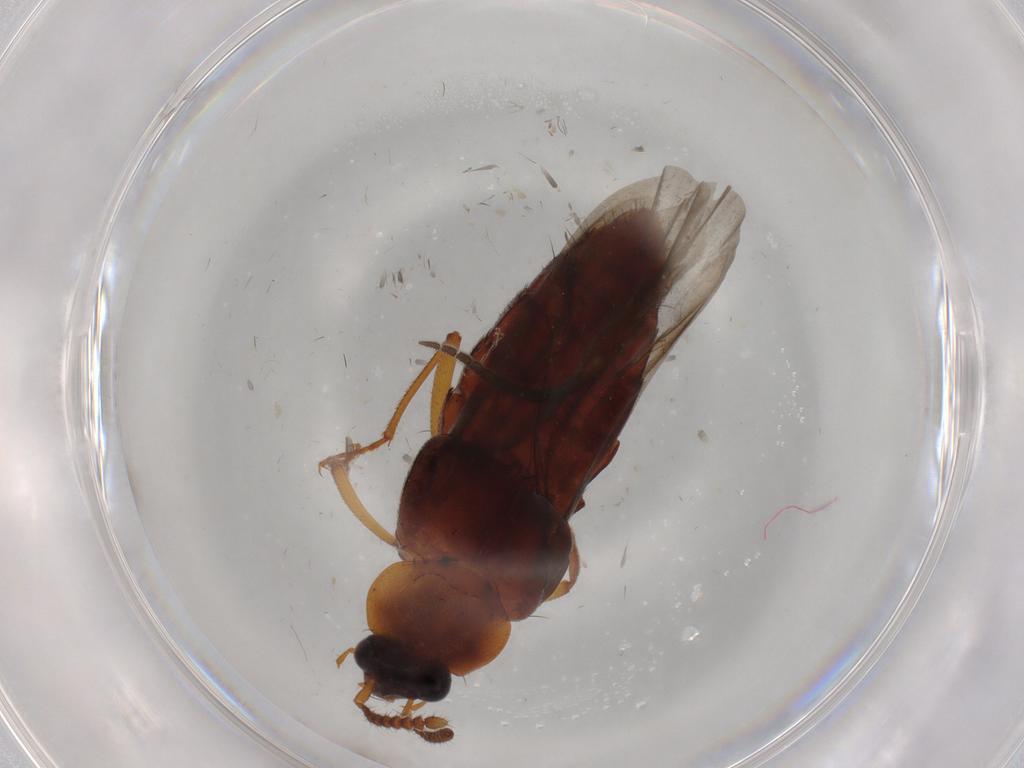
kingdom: Animalia
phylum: Arthropoda
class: Insecta
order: Coleoptera
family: Staphylinidae
